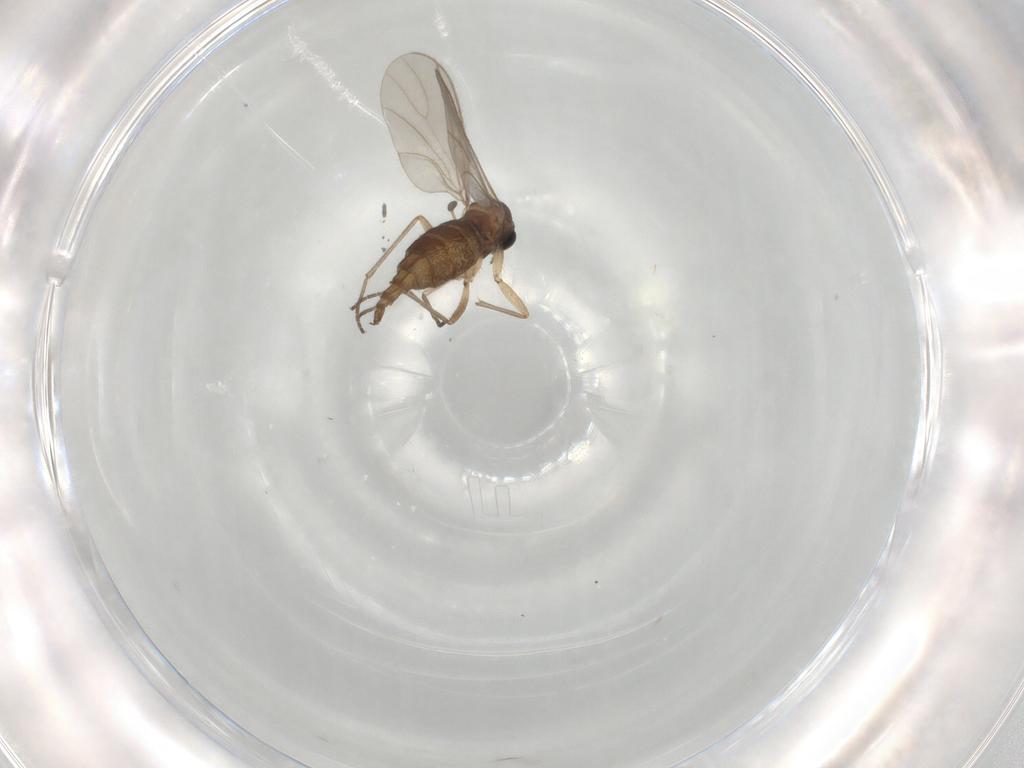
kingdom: Animalia
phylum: Arthropoda
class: Insecta
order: Diptera
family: Sciaridae
